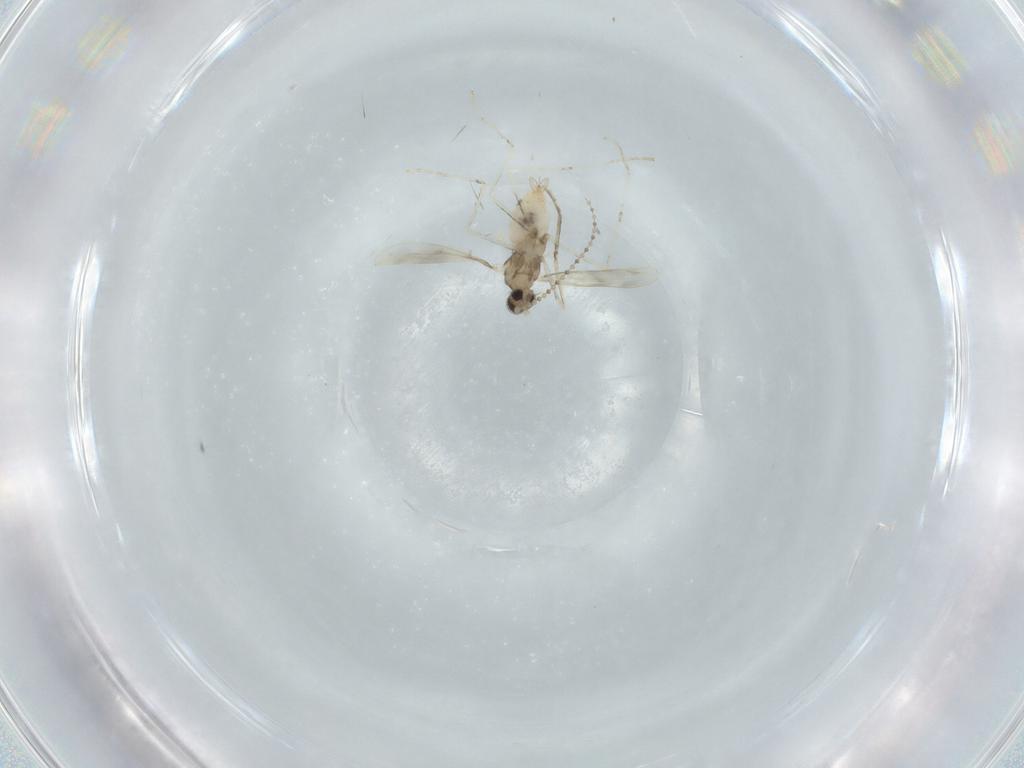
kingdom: Animalia
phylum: Arthropoda
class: Insecta
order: Diptera
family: Cecidomyiidae
